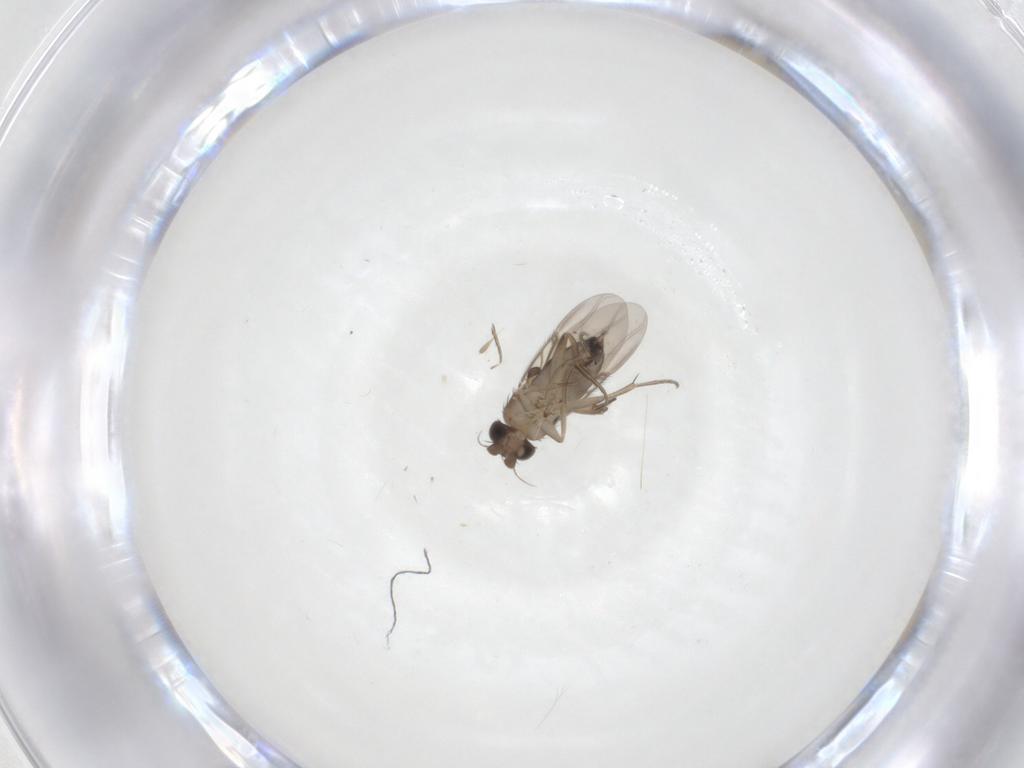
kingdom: Animalia
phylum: Arthropoda
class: Insecta
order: Diptera
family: Phoridae
